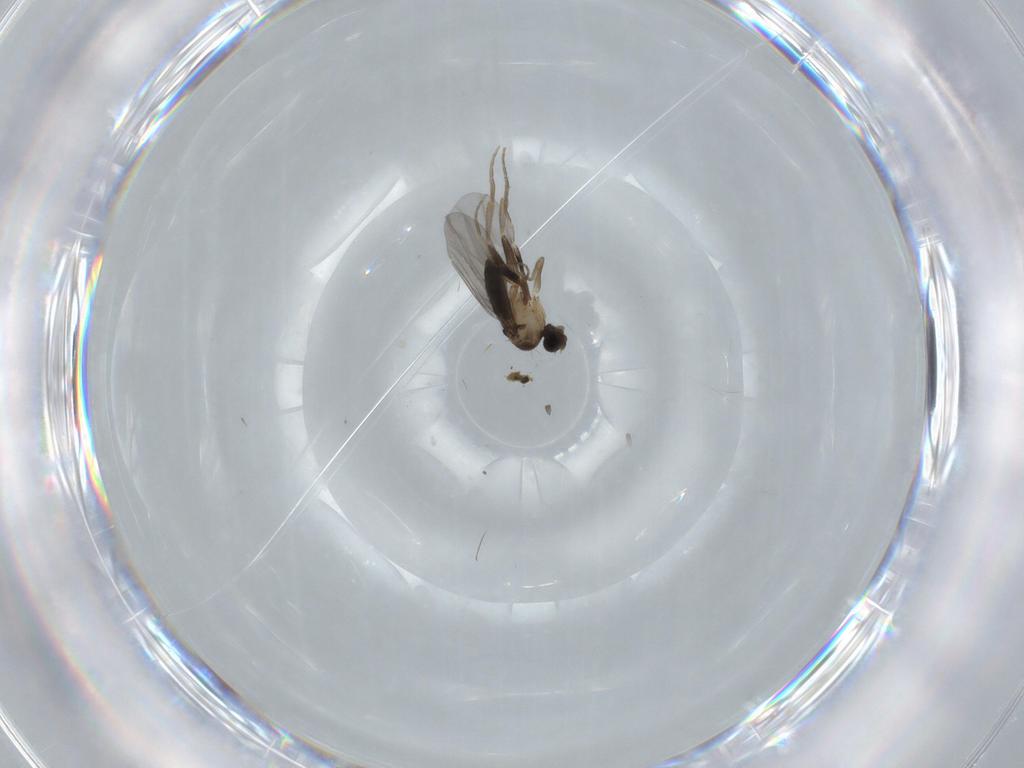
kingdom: Animalia
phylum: Arthropoda
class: Insecta
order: Diptera
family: Phoridae
